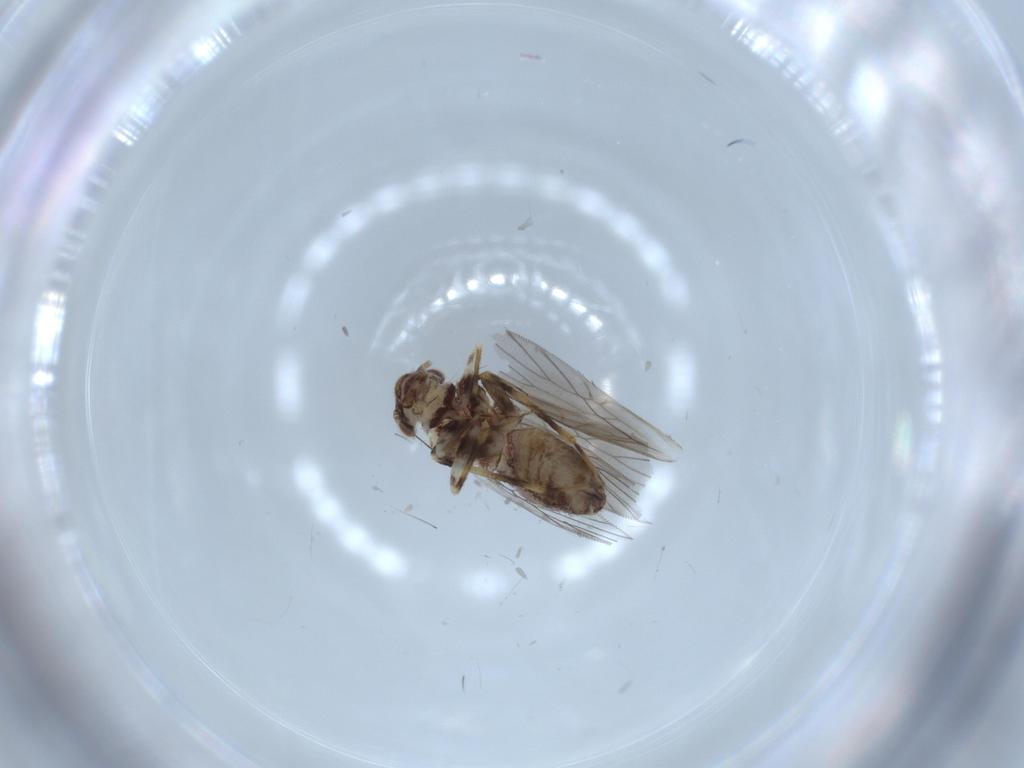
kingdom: Animalia
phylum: Arthropoda
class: Insecta
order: Psocodea
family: Lepidopsocidae
